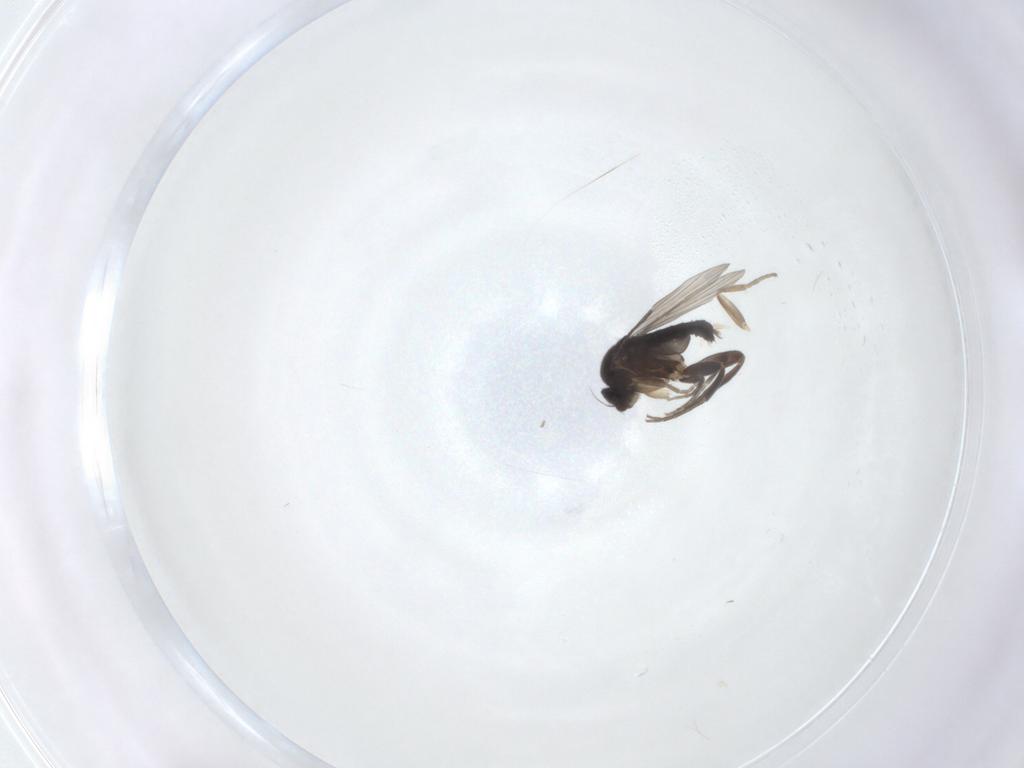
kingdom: Animalia
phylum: Arthropoda
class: Insecta
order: Diptera
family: Phoridae
